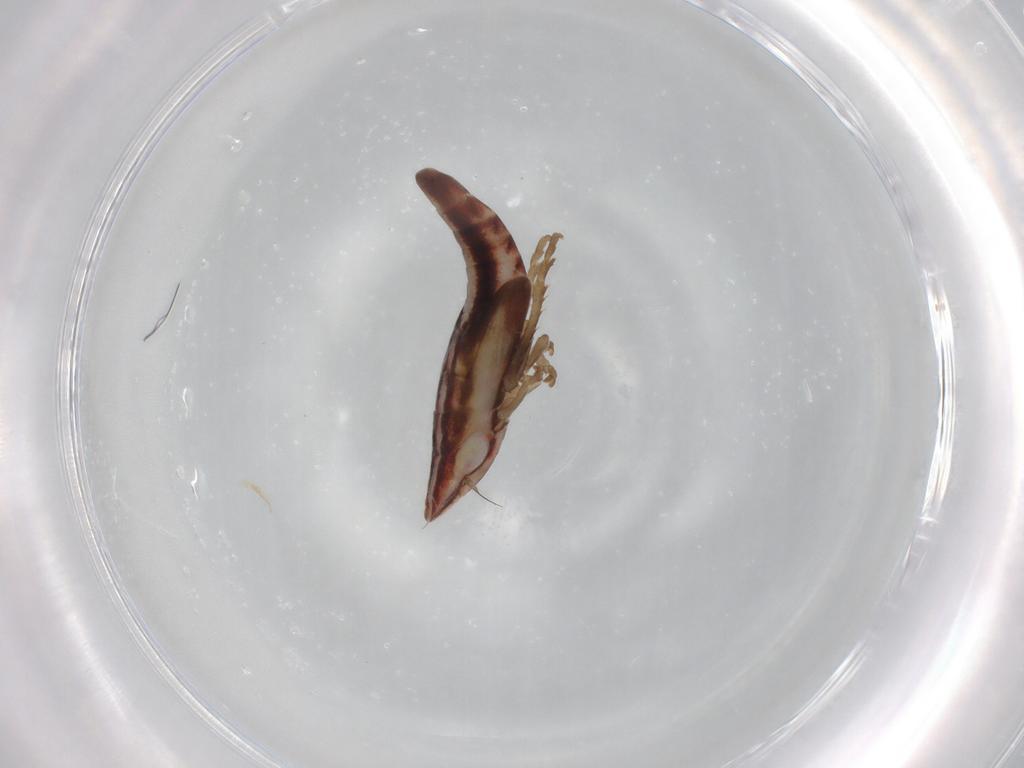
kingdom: Animalia
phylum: Arthropoda
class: Insecta
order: Hemiptera
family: Cicadellidae
